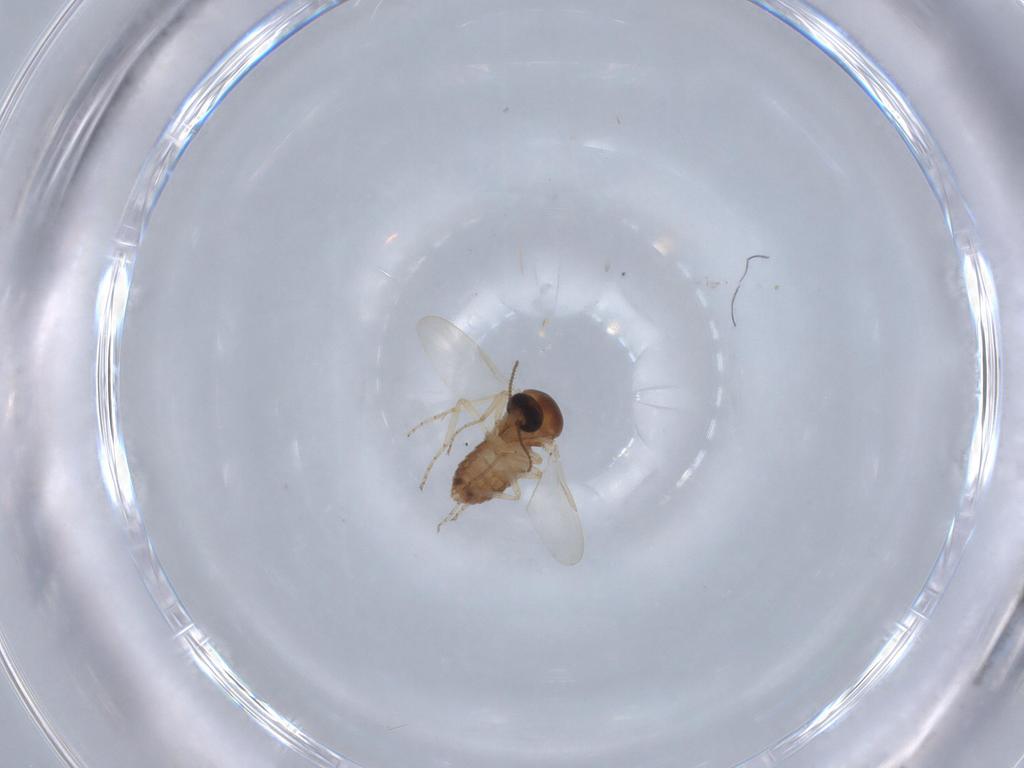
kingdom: Animalia
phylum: Arthropoda
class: Insecta
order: Diptera
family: Ceratopogonidae
